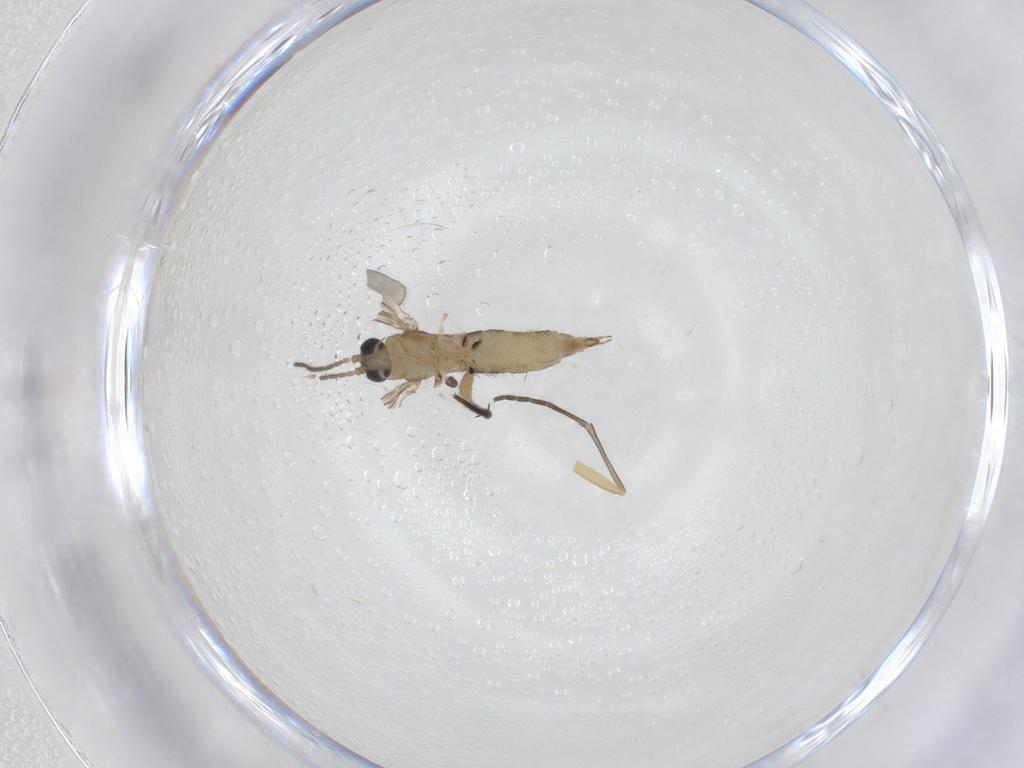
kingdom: Animalia
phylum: Arthropoda
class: Insecta
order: Diptera
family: Sciaridae
